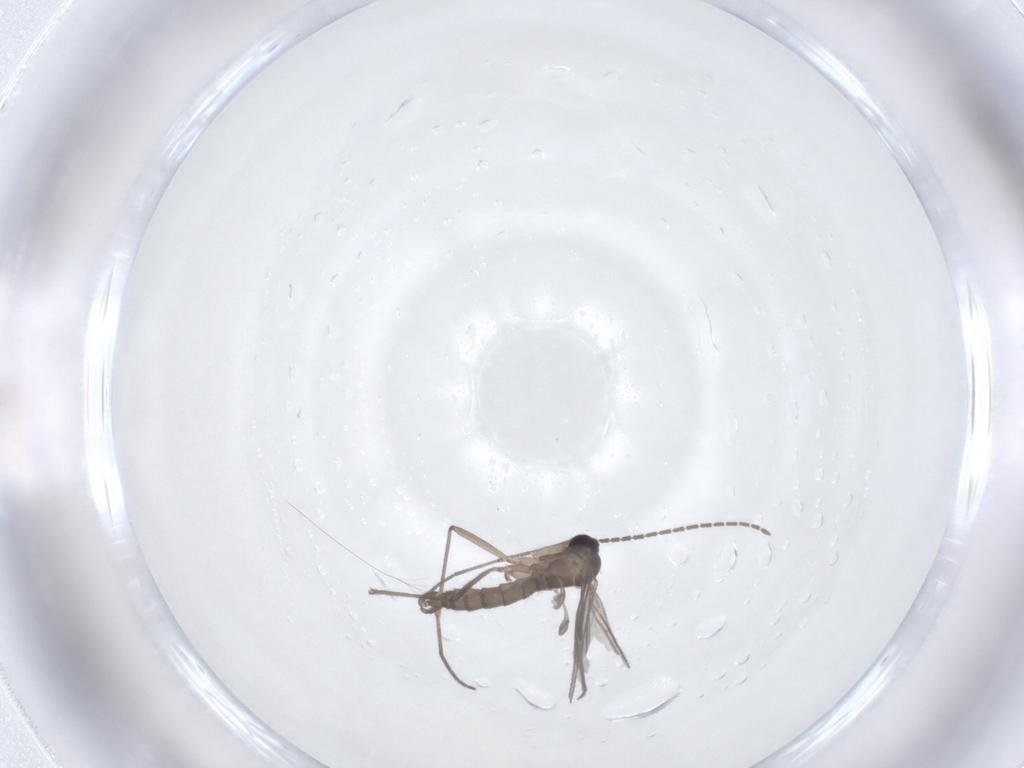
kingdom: Animalia
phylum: Arthropoda
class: Insecta
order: Diptera
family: Sciaridae
